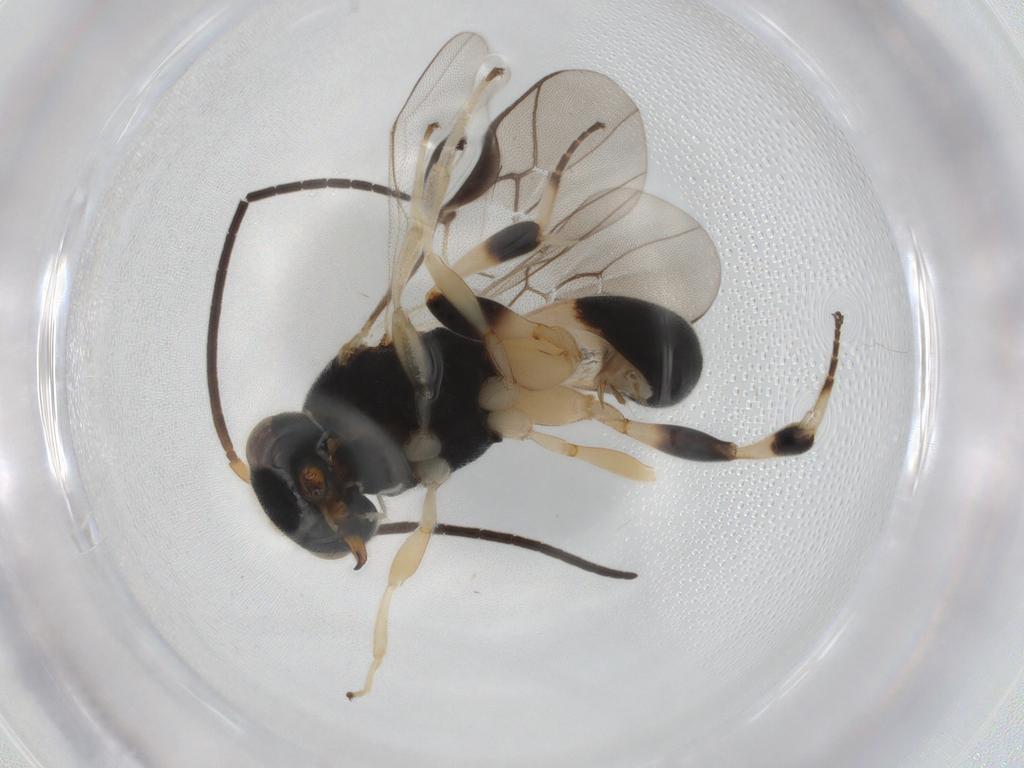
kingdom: Animalia
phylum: Arthropoda
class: Insecta
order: Hymenoptera
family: Braconidae
